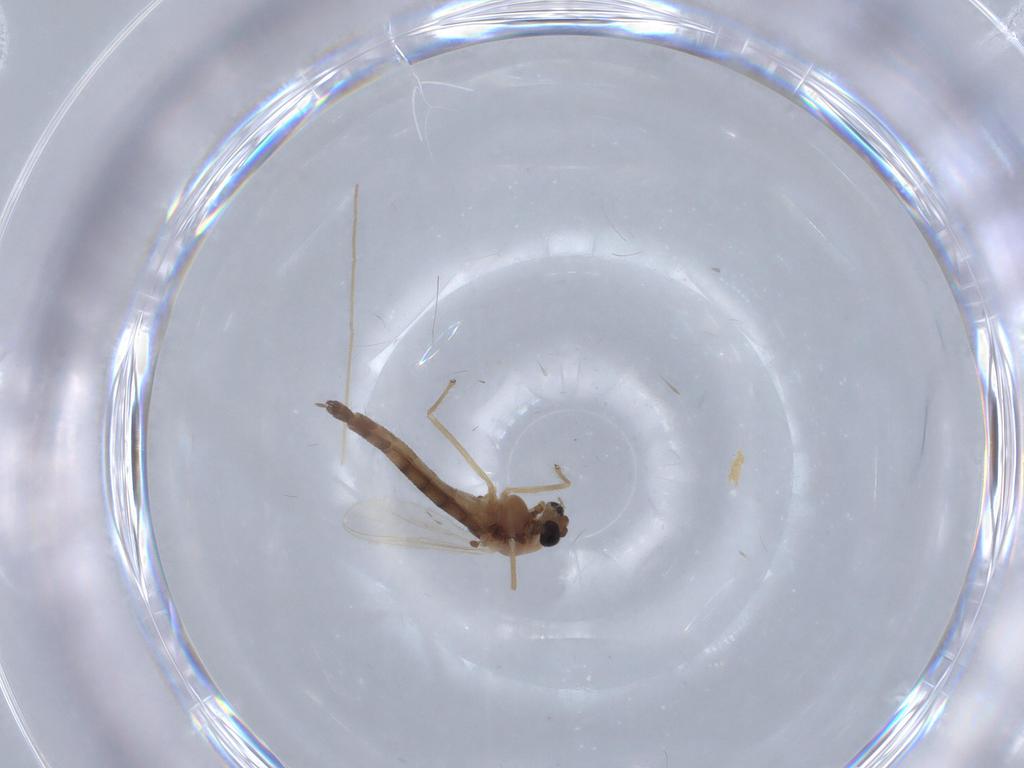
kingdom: Animalia
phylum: Arthropoda
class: Insecta
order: Diptera
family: Chironomidae
